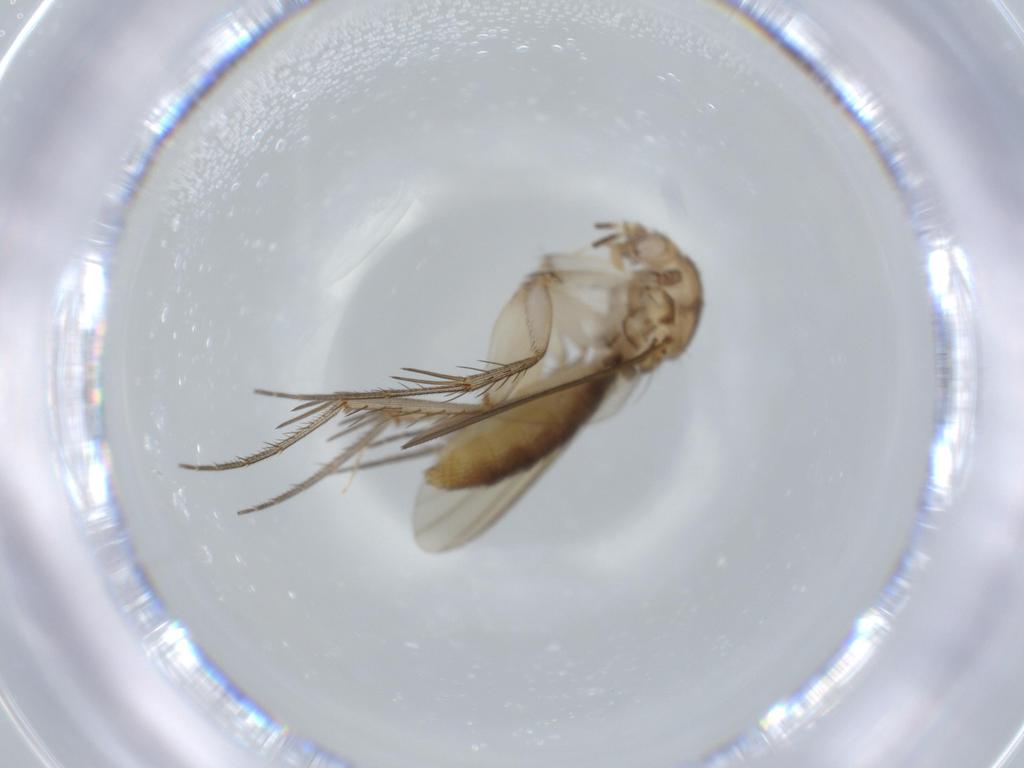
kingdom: Animalia
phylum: Arthropoda
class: Insecta
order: Diptera
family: Mycetophilidae
